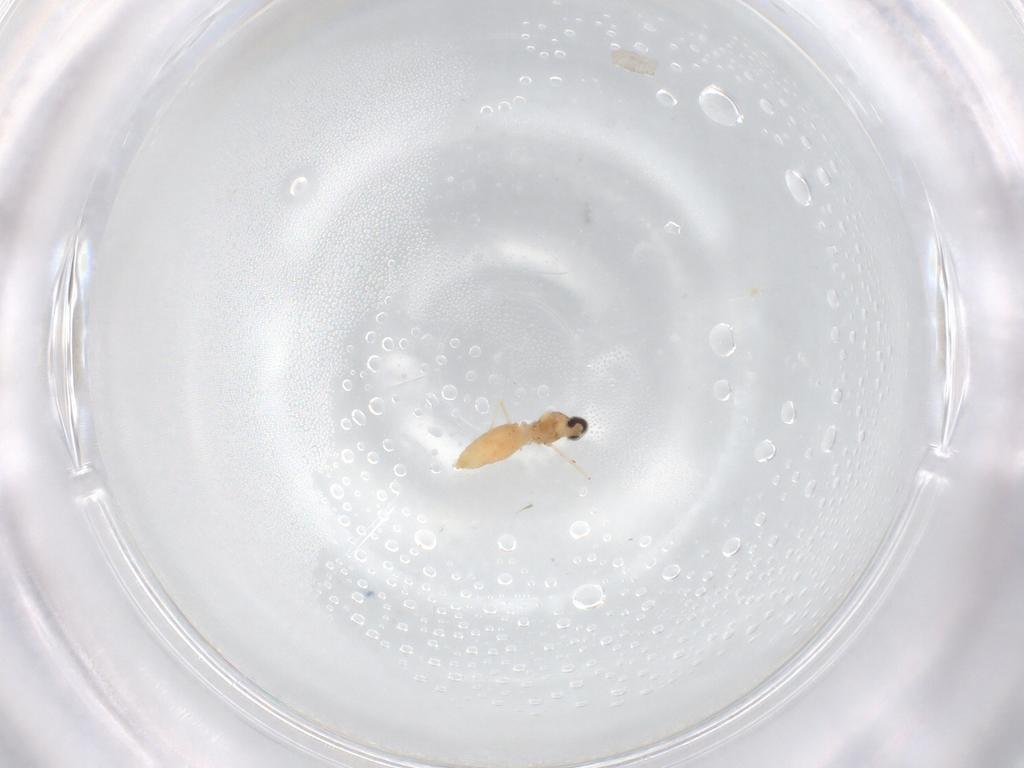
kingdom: Animalia
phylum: Arthropoda
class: Insecta
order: Diptera
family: Cecidomyiidae
